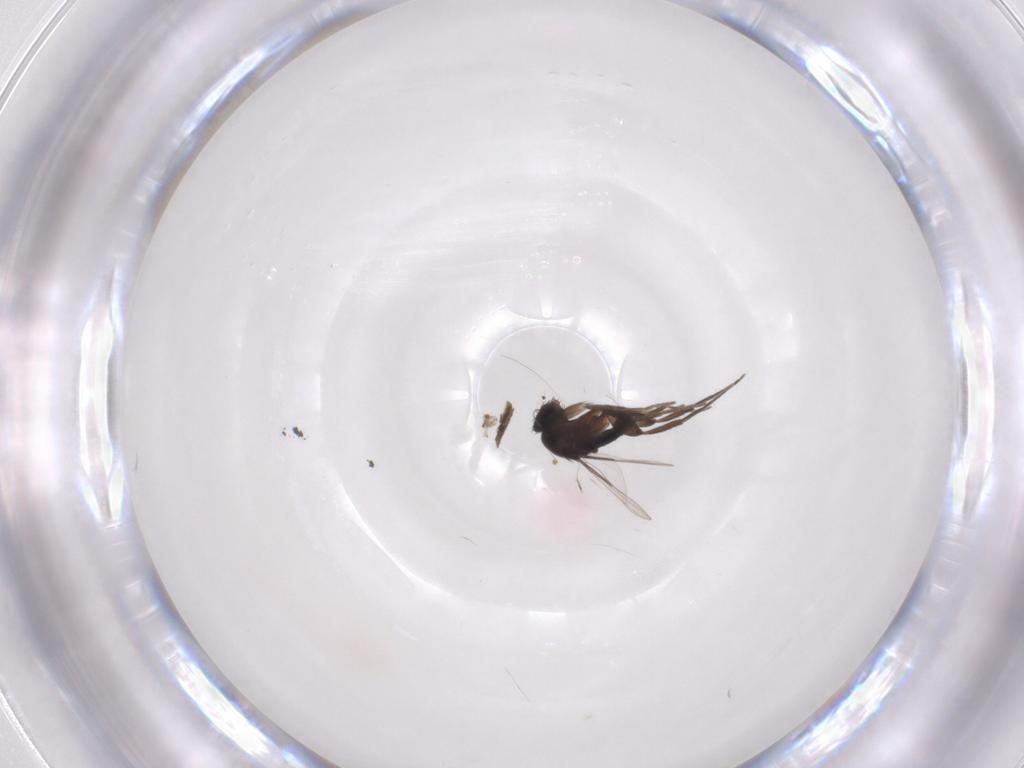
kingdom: Animalia
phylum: Arthropoda
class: Insecta
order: Diptera
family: Phoridae
